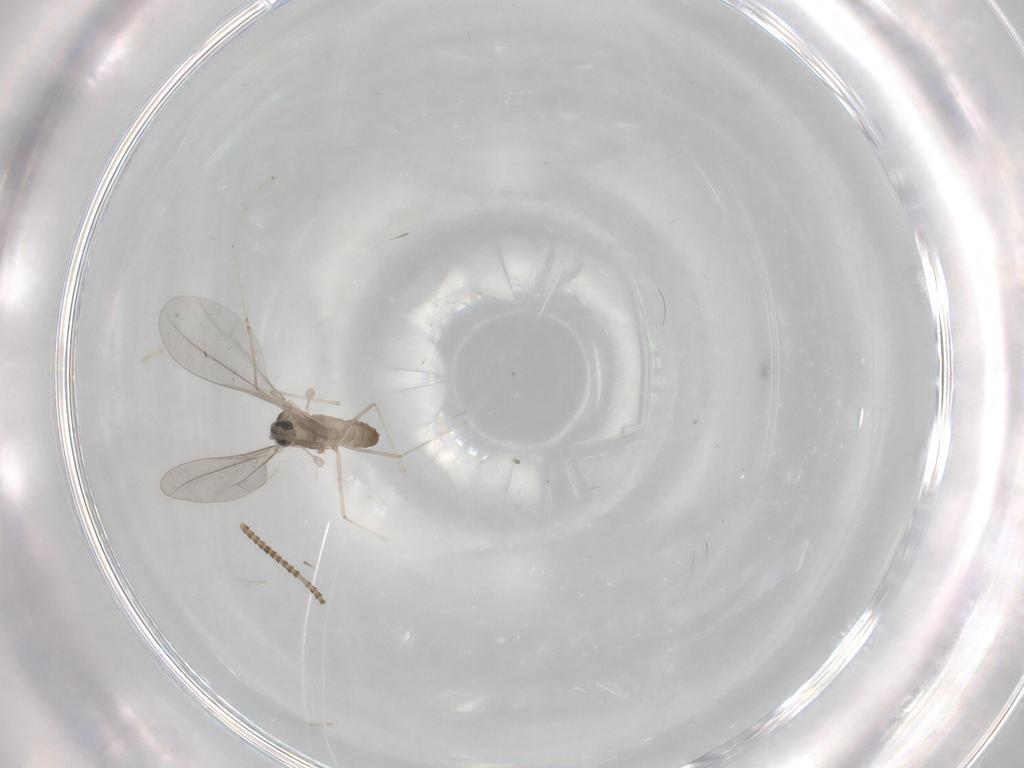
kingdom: Animalia
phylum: Arthropoda
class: Insecta
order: Diptera
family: Cecidomyiidae
